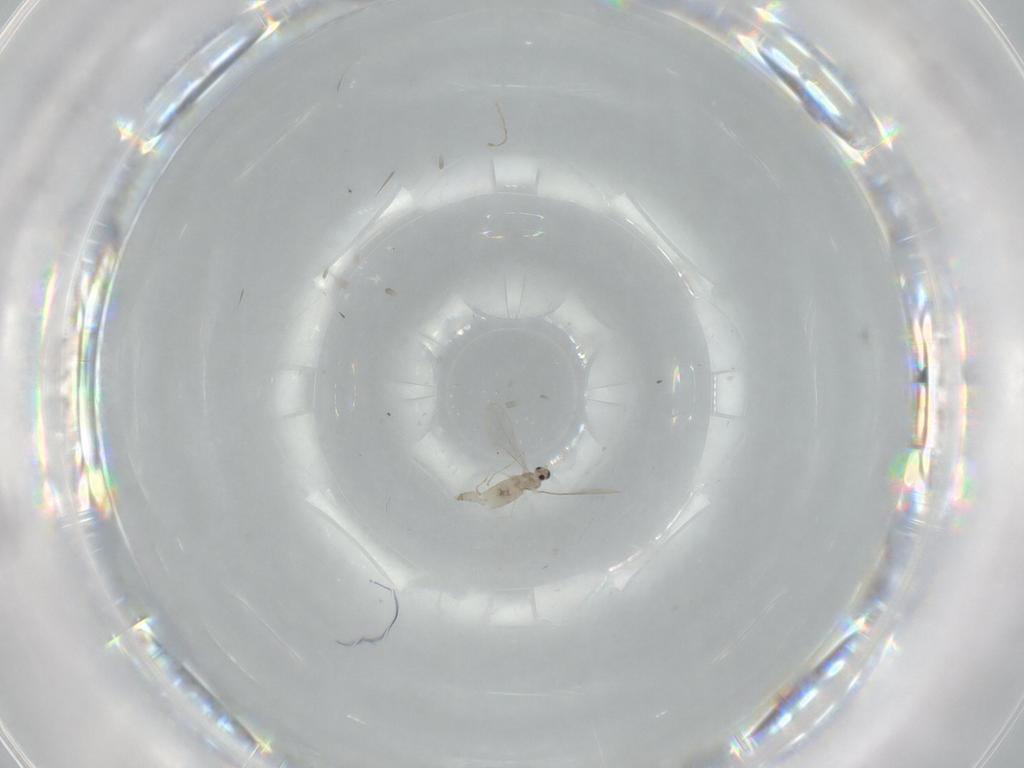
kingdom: Animalia
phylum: Arthropoda
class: Insecta
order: Diptera
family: Cecidomyiidae
